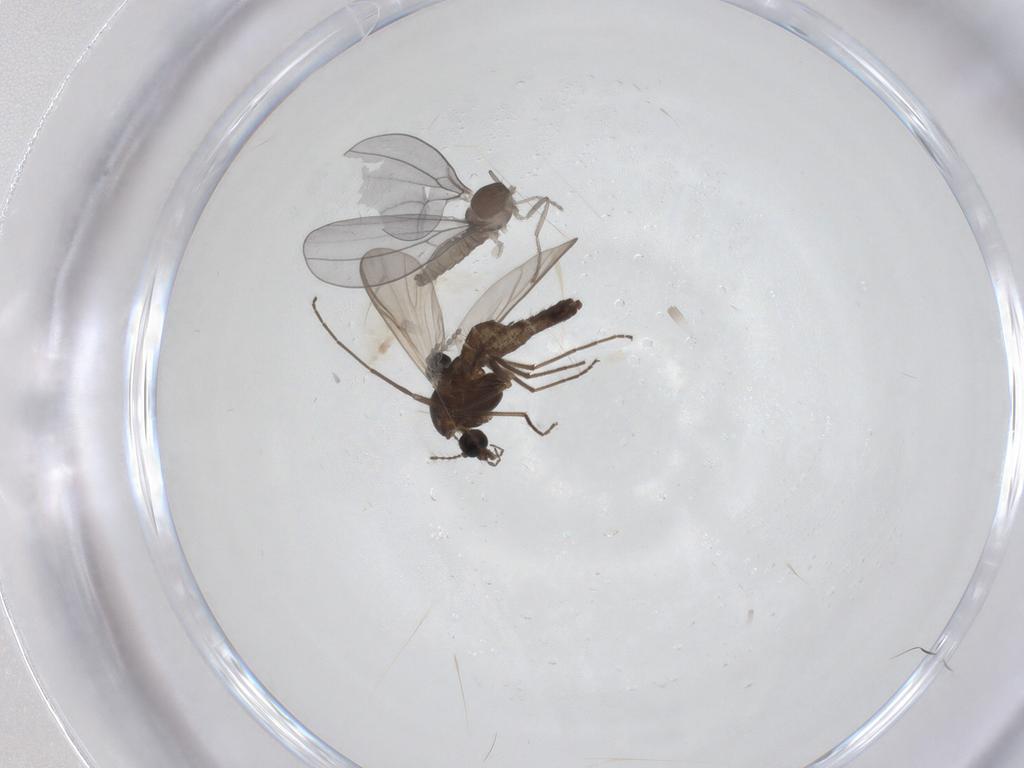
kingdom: Animalia
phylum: Arthropoda
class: Insecta
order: Diptera
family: Cecidomyiidae
